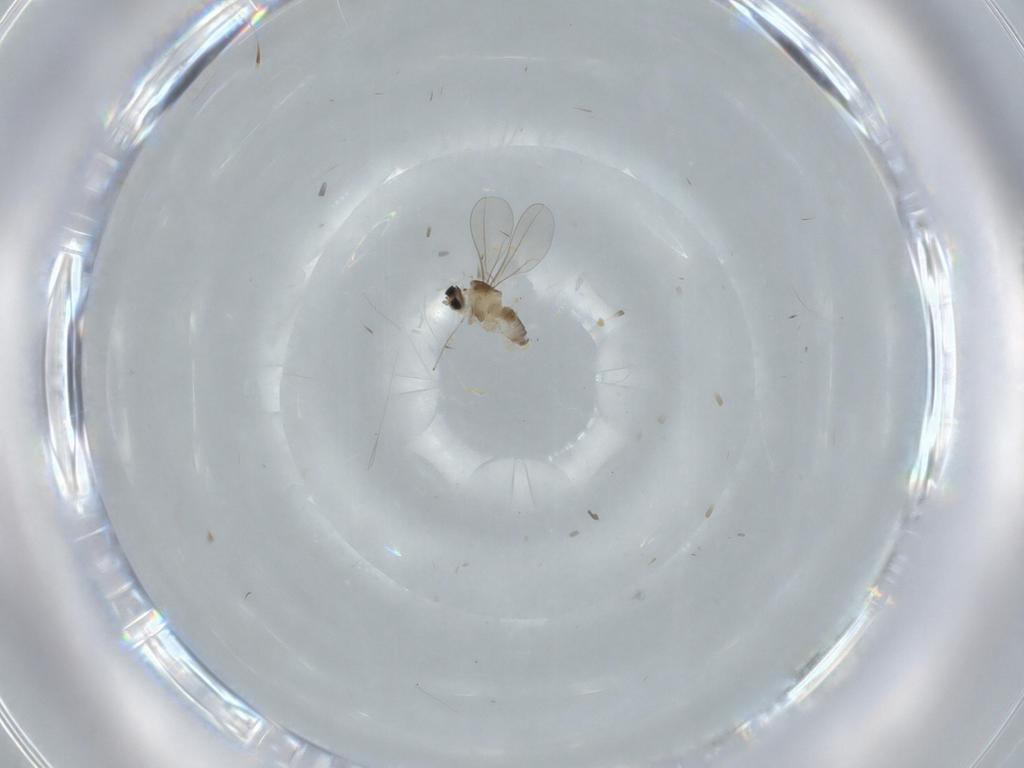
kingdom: Animalia
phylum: Arthropoda
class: Insecta
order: Diptera
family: Cecidomyiidae
